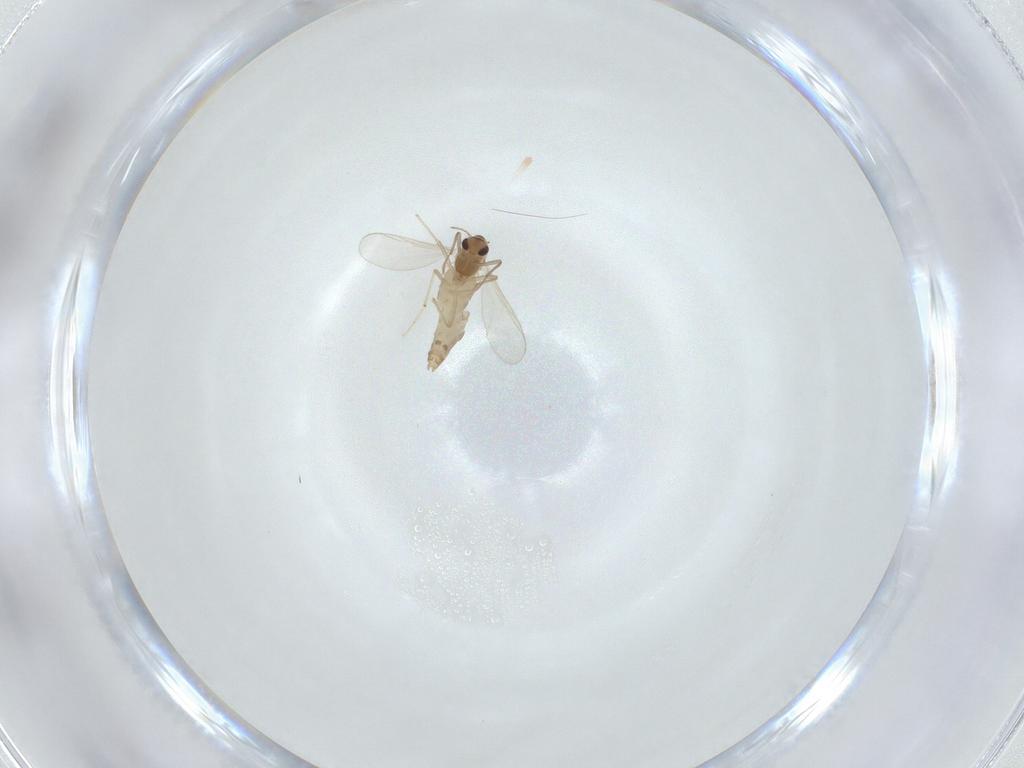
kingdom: Animalia
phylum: Arthropoda
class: Insecta
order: Diptera
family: Chironomidae
